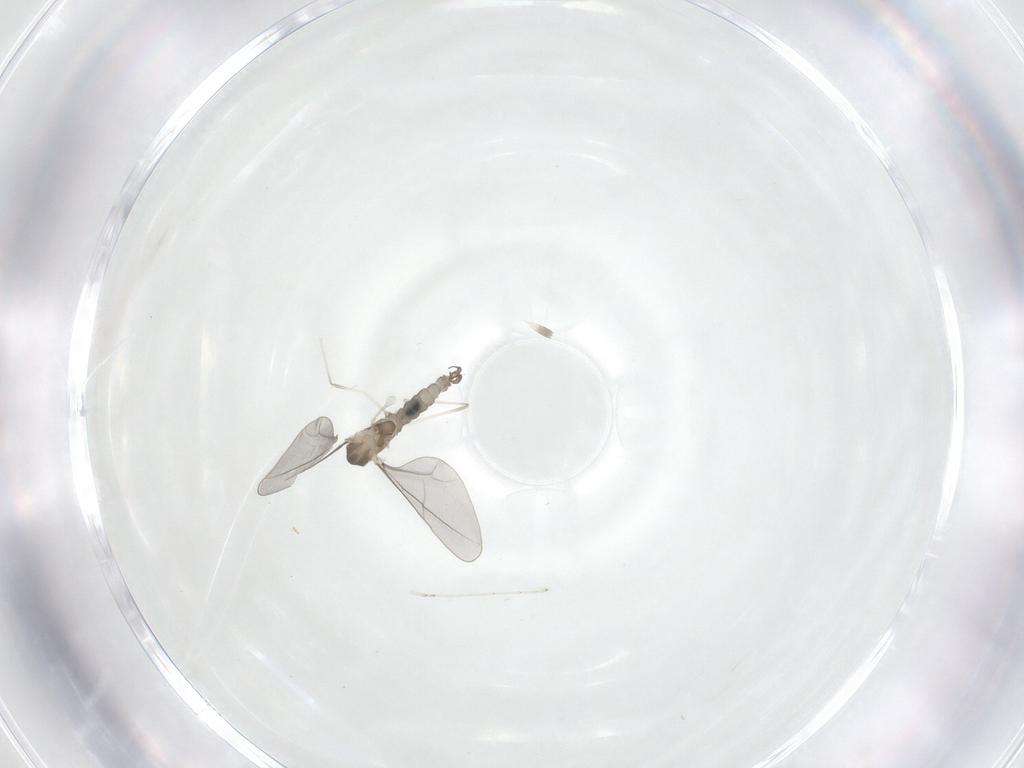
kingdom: Animalia
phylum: Arthropoda
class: Insecta
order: Diptera
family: Cecidomyiidae
